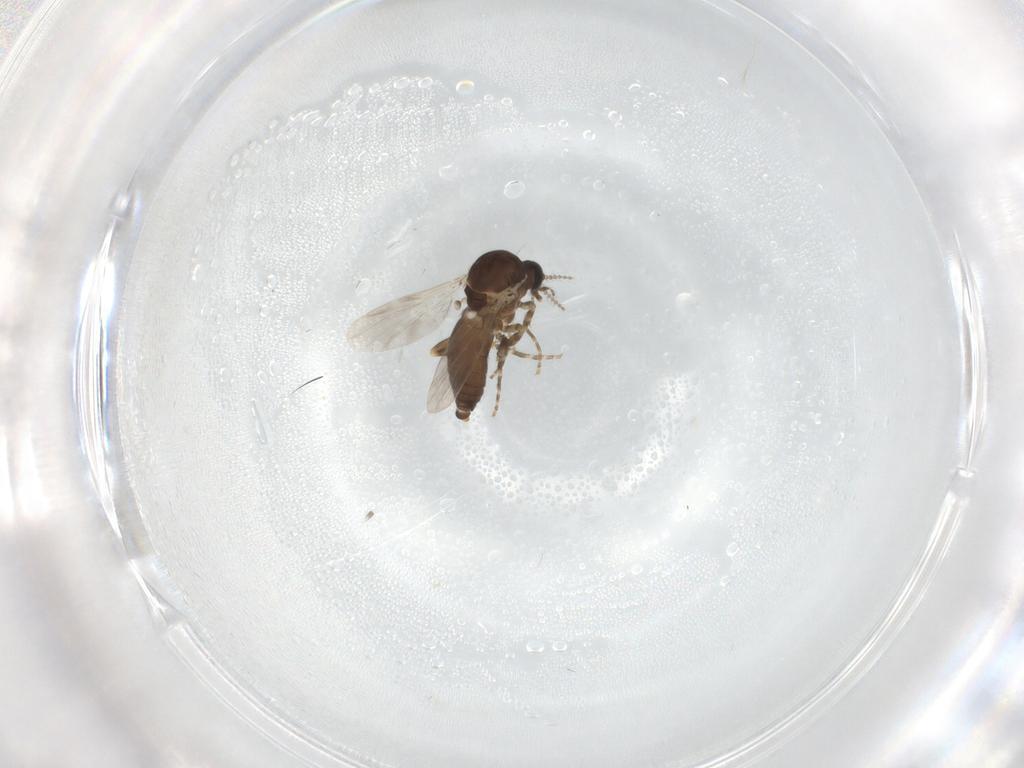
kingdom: Animalia
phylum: Arthropoda
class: Insecta
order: Diptera
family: Ceratopogonidae
